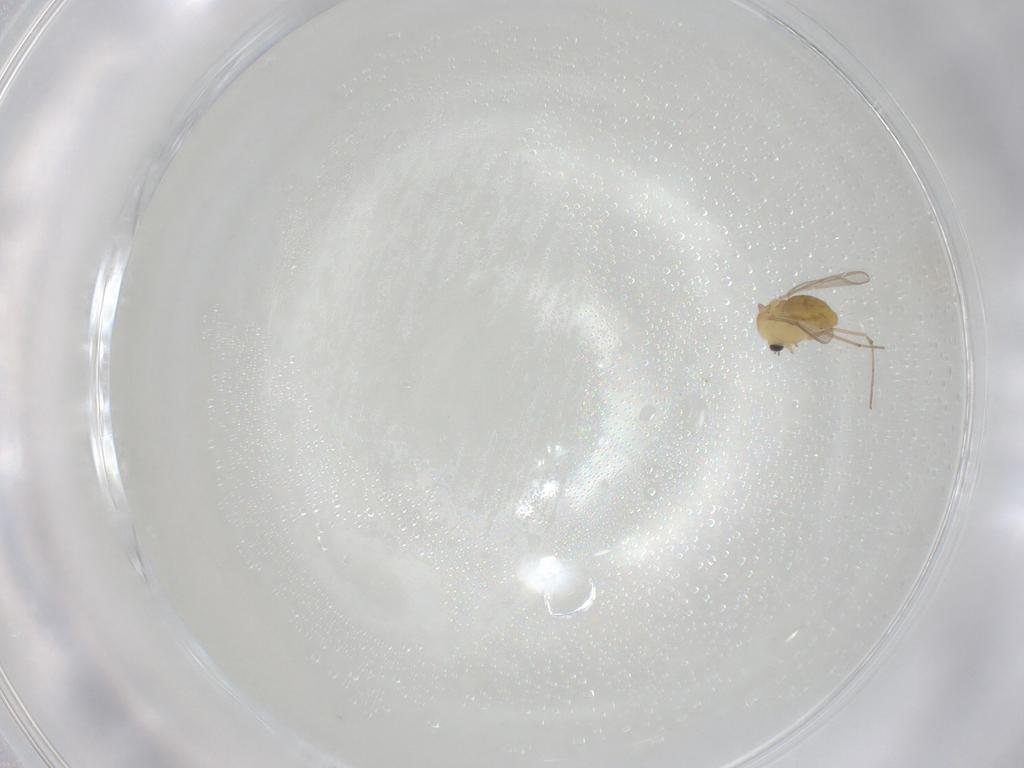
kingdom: Animalia
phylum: Arthropoda
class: Insecta
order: Diptera
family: Chironomidae
